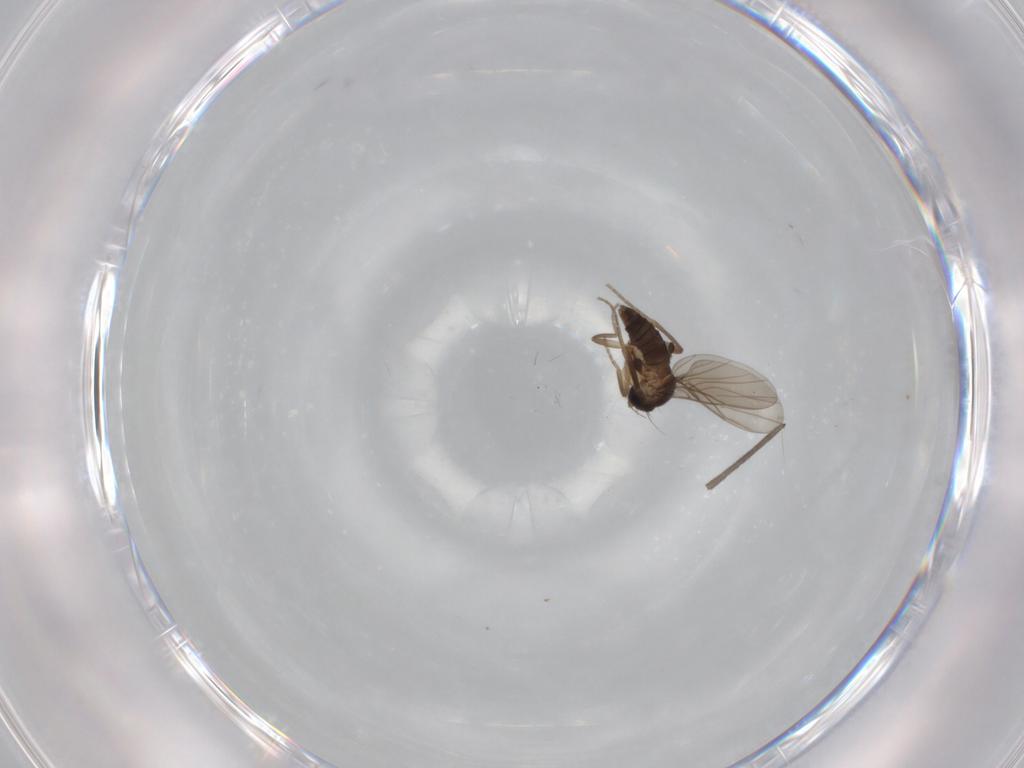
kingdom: Animalia
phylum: Arthropoda
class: Insecta
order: Diptera
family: Phoridae
